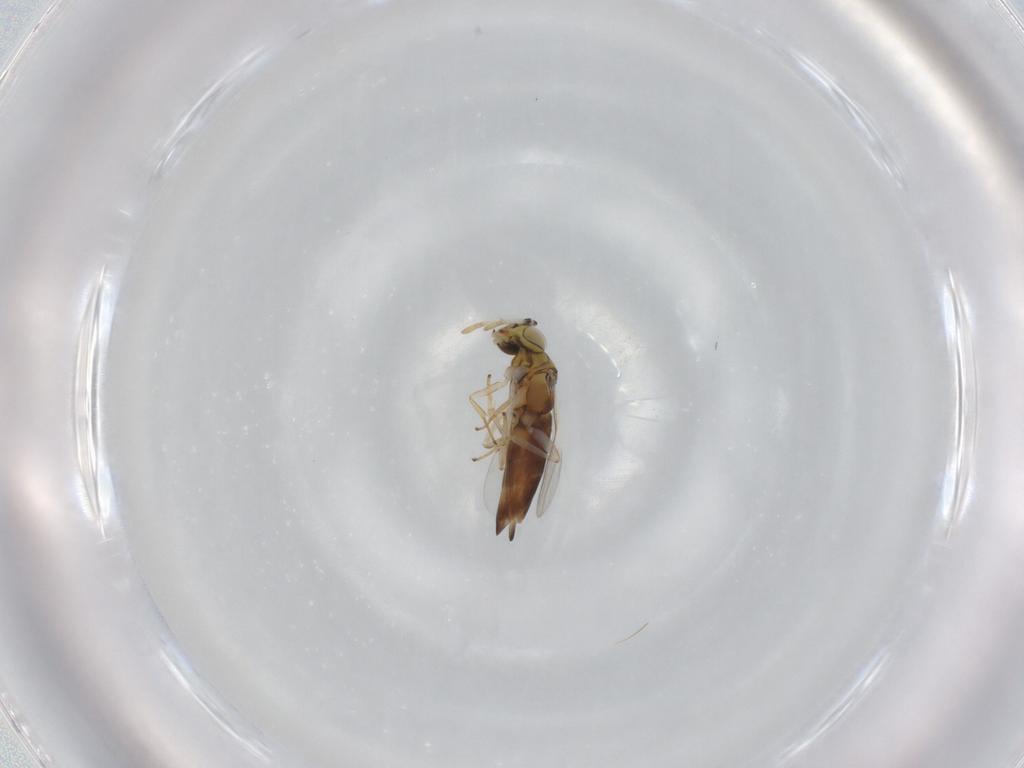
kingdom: Animalia
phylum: Arthropoda
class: Insecta
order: Hymenoptera
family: Encyrtidae
